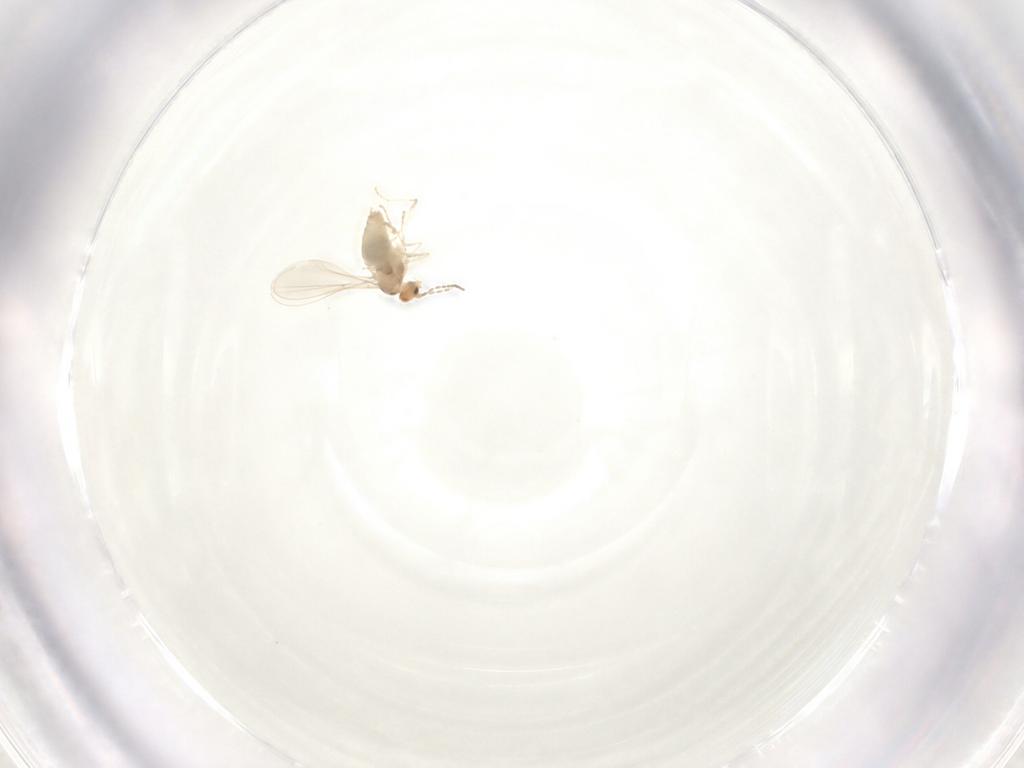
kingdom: Animalia
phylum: Arthropoda
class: Insecta
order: Diptera
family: Cecidomyiidae
